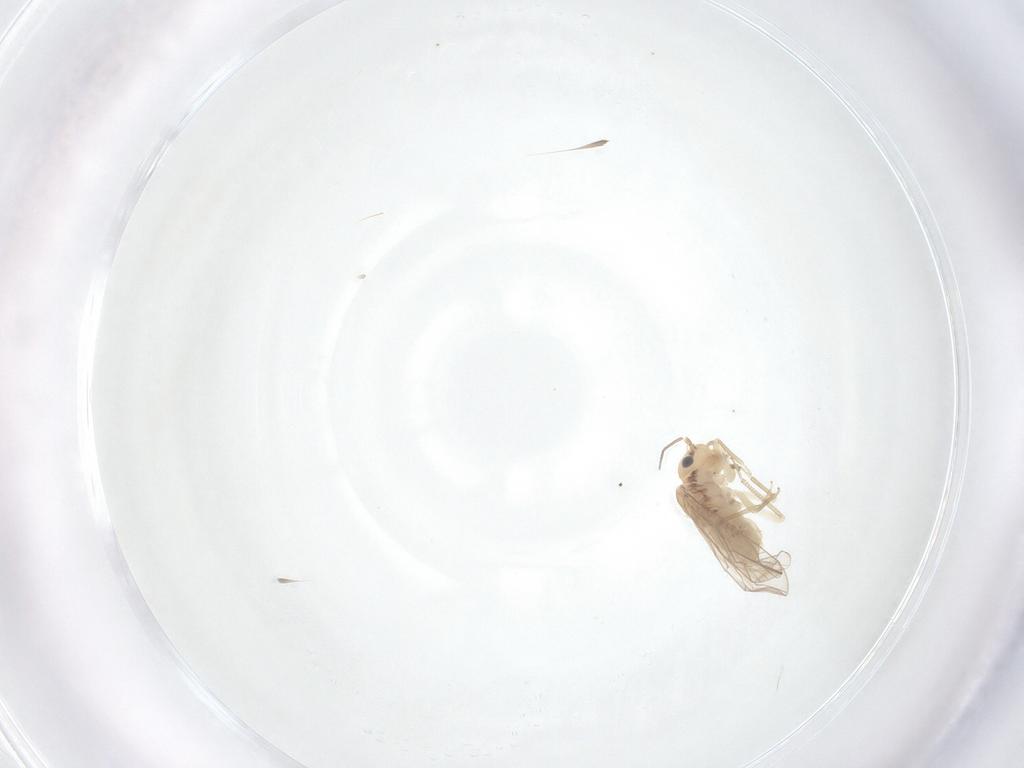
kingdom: Animalia
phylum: Arthropoda
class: Insecta
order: Psocodea
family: Ectopsocidae
